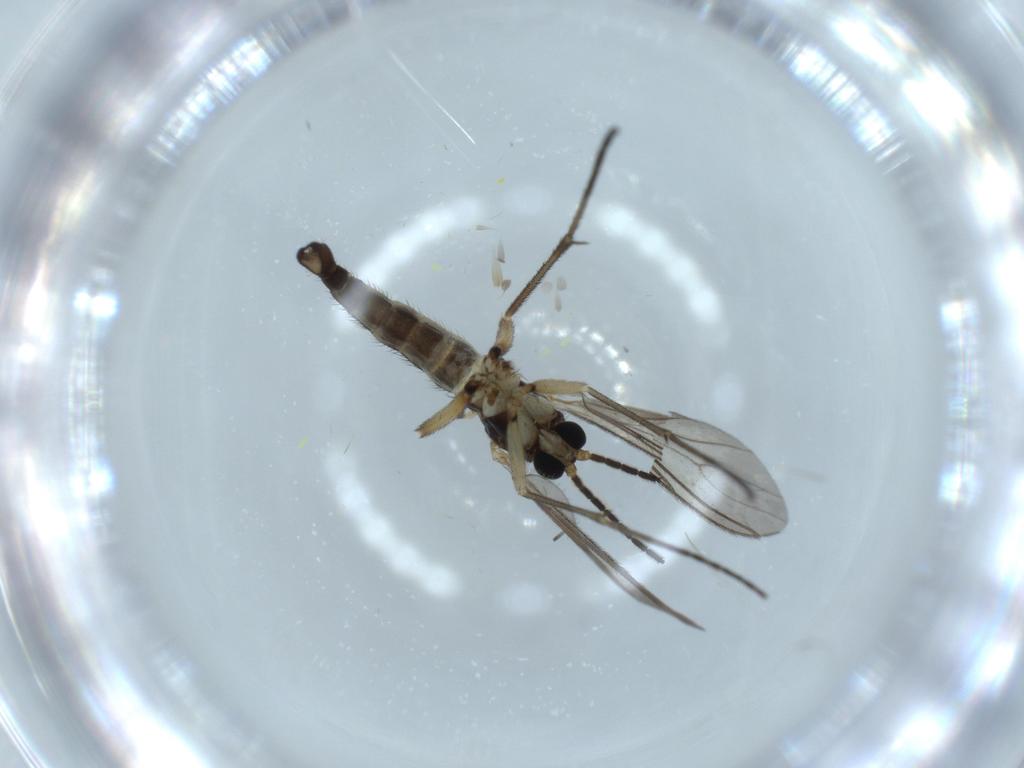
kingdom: Animalia
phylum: Arthropoda
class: Insecta
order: Diptera
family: Sciaridae
